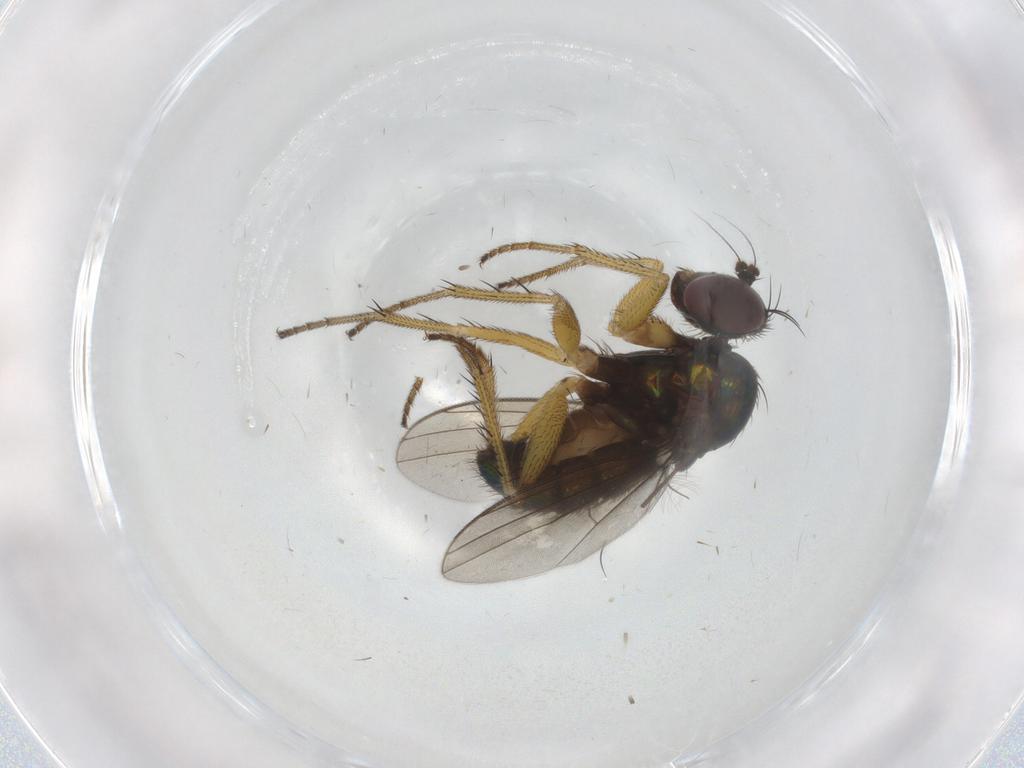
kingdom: Animalia
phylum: Arthropoda
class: Insecta
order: Diptera
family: Dolichopodidae
